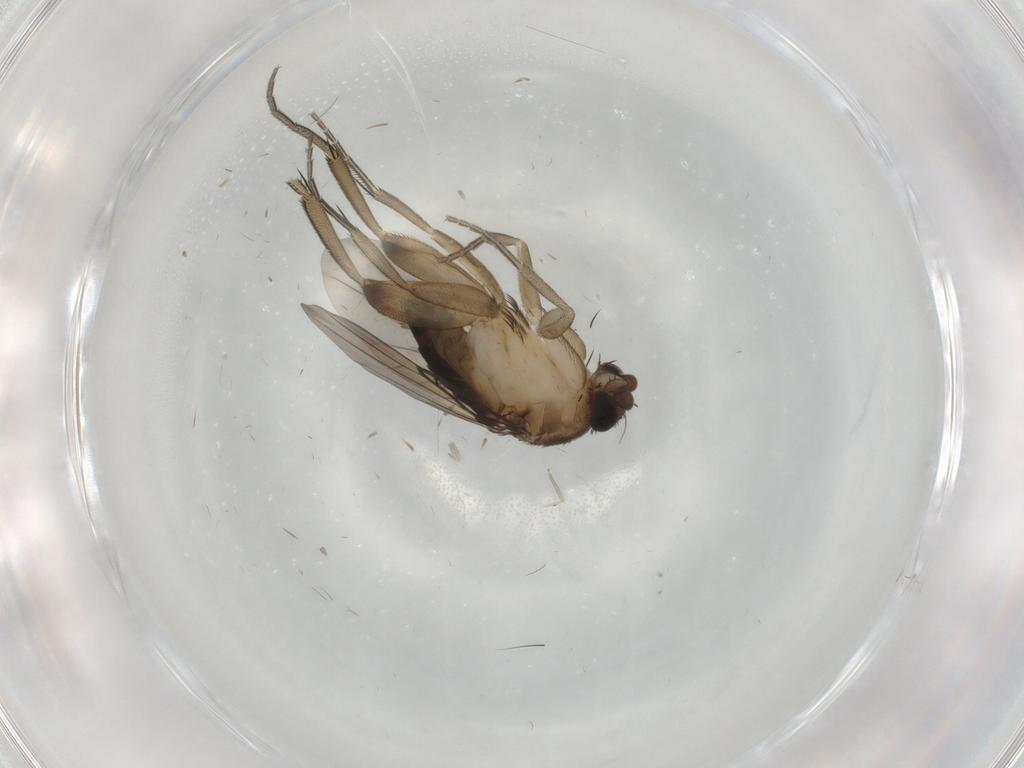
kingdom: Animalia
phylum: Arthropoda
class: Insecta
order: Diptera
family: Phoridae
